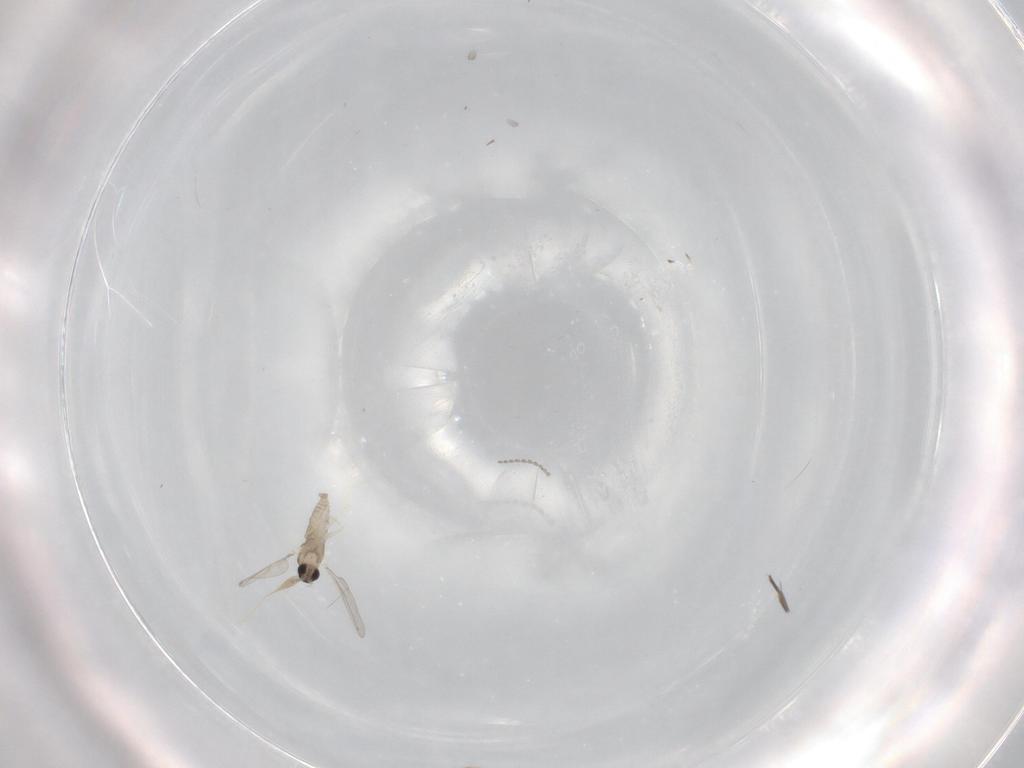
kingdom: Animalia
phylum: Arthropoda
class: Insecta
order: Diptera
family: Cecidomyiidae
